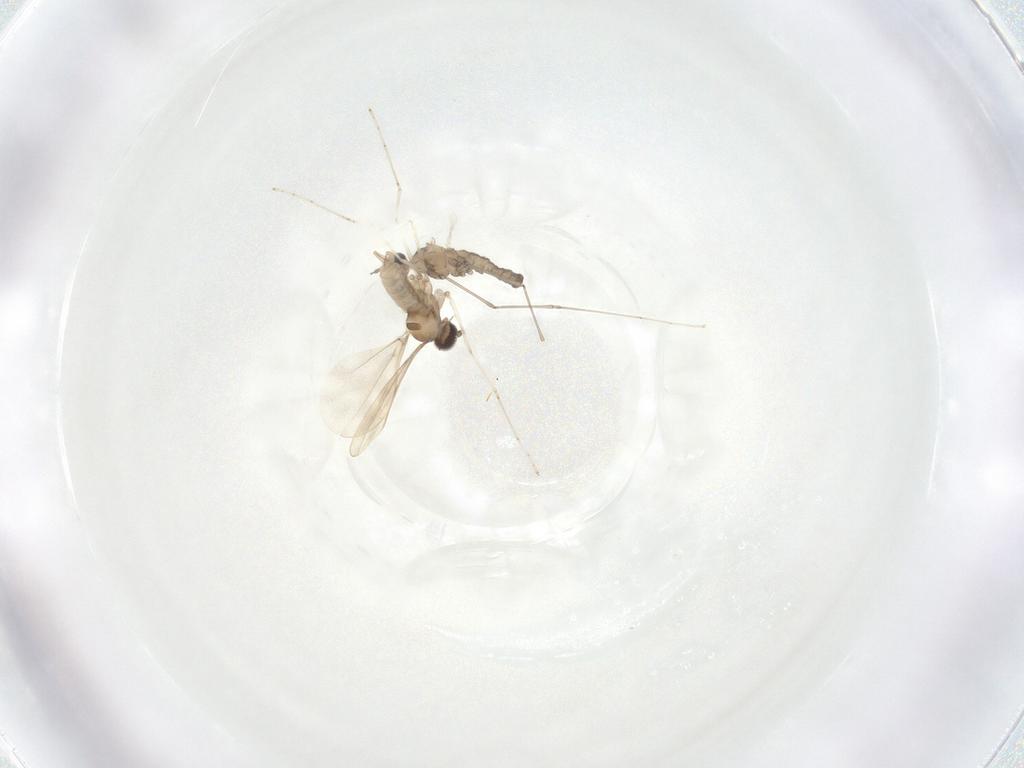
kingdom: Animalia
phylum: Arthropoda
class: Insecta
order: Diptera
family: Cecidomyiidae
